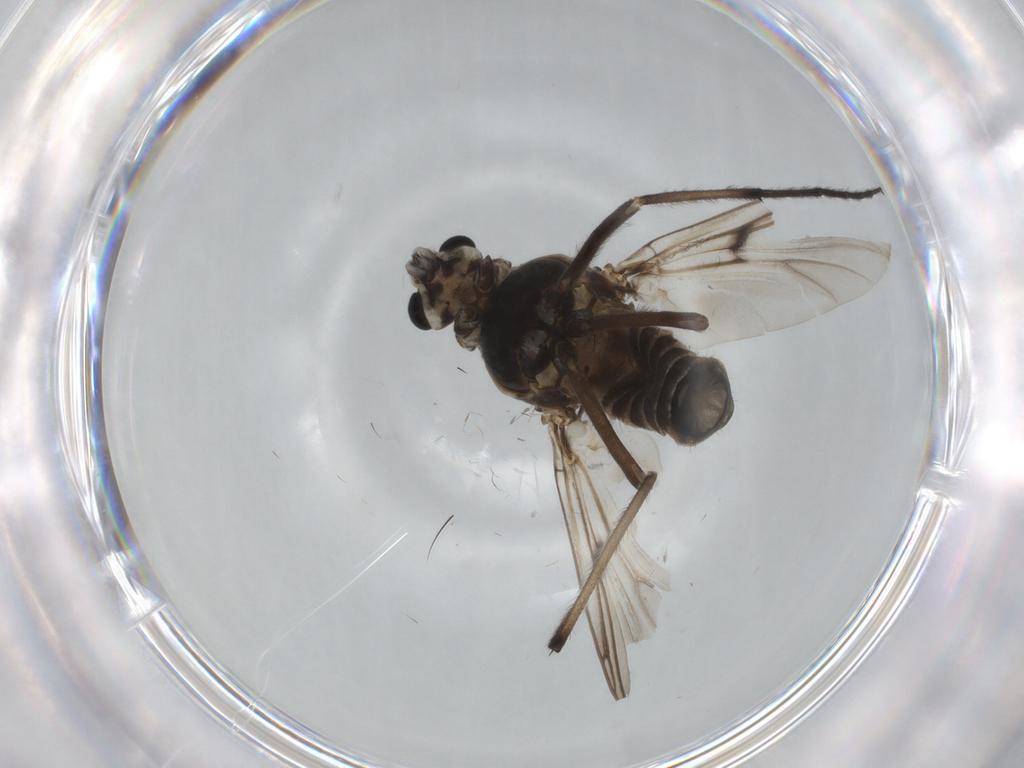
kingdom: Animalia
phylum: Arthropoda
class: Insecta
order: Diptera
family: Chironomidae
